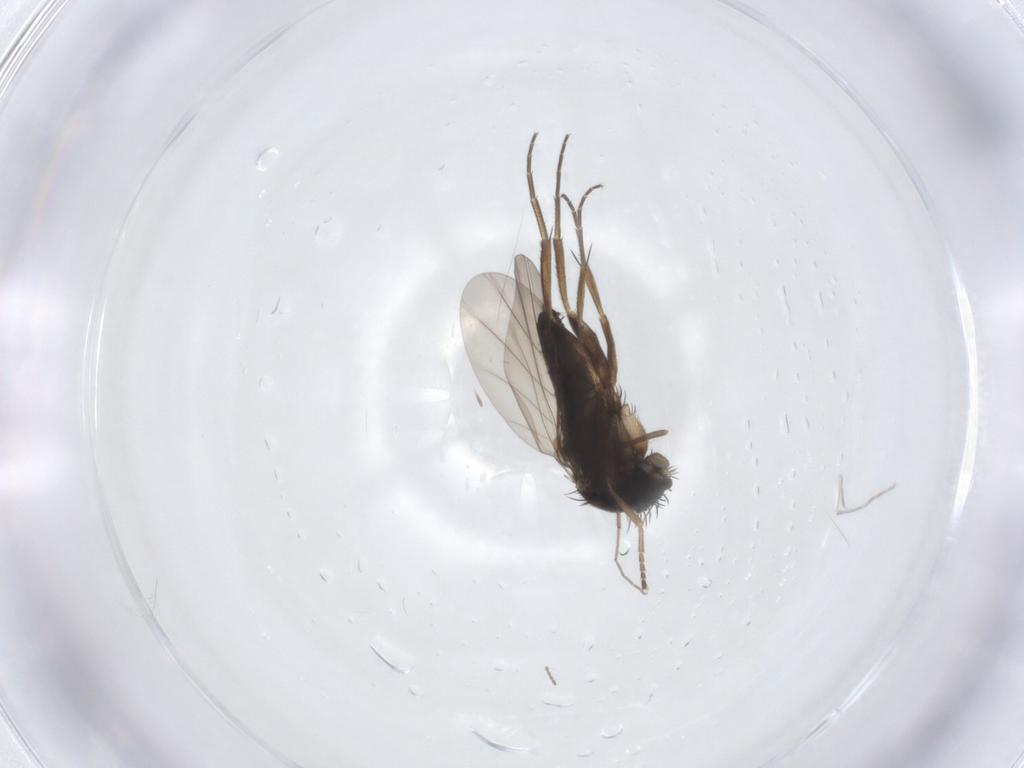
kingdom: Animalia
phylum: Arthropoda
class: Insecta
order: Diptera
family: Phoridae
